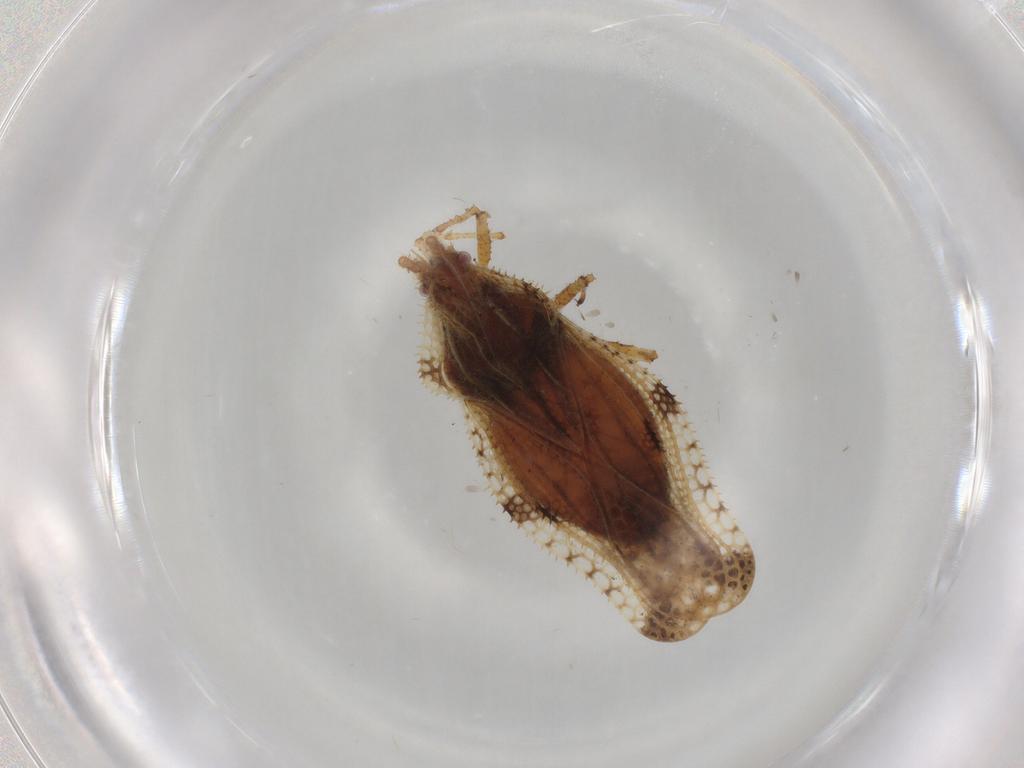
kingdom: Animalia
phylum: Arthropoda
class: Insecta
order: Hemiptera
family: Tingidae
